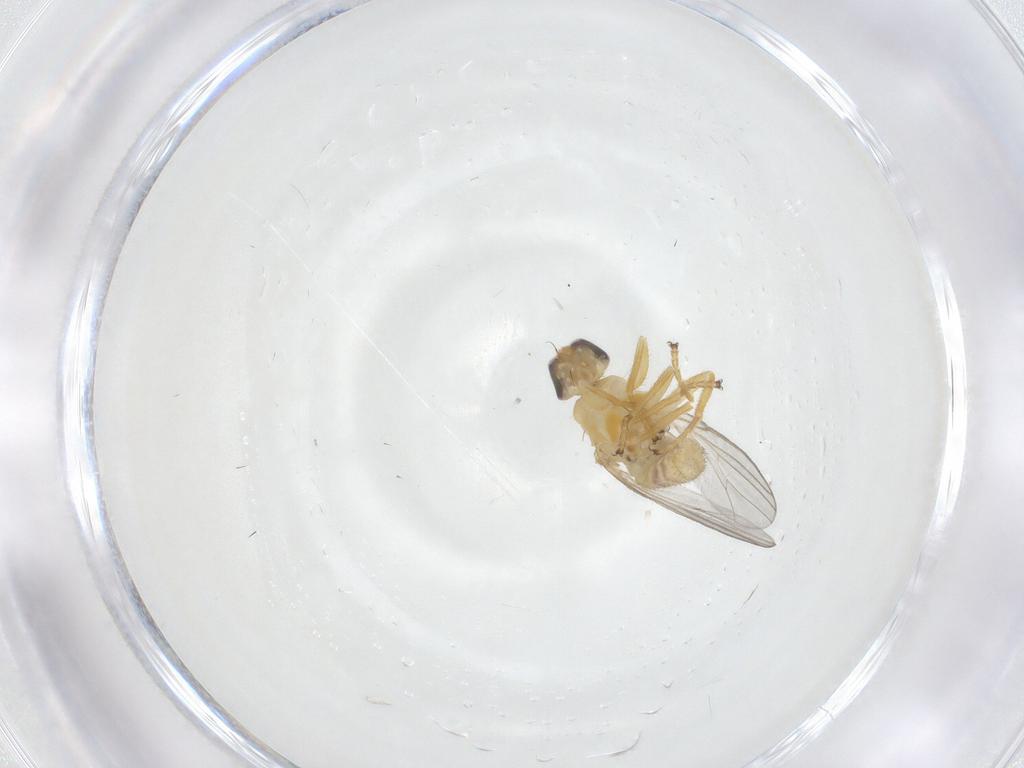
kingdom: Animalia
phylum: Arthropoda
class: Insecta
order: Diptera
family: Chyromyidae
